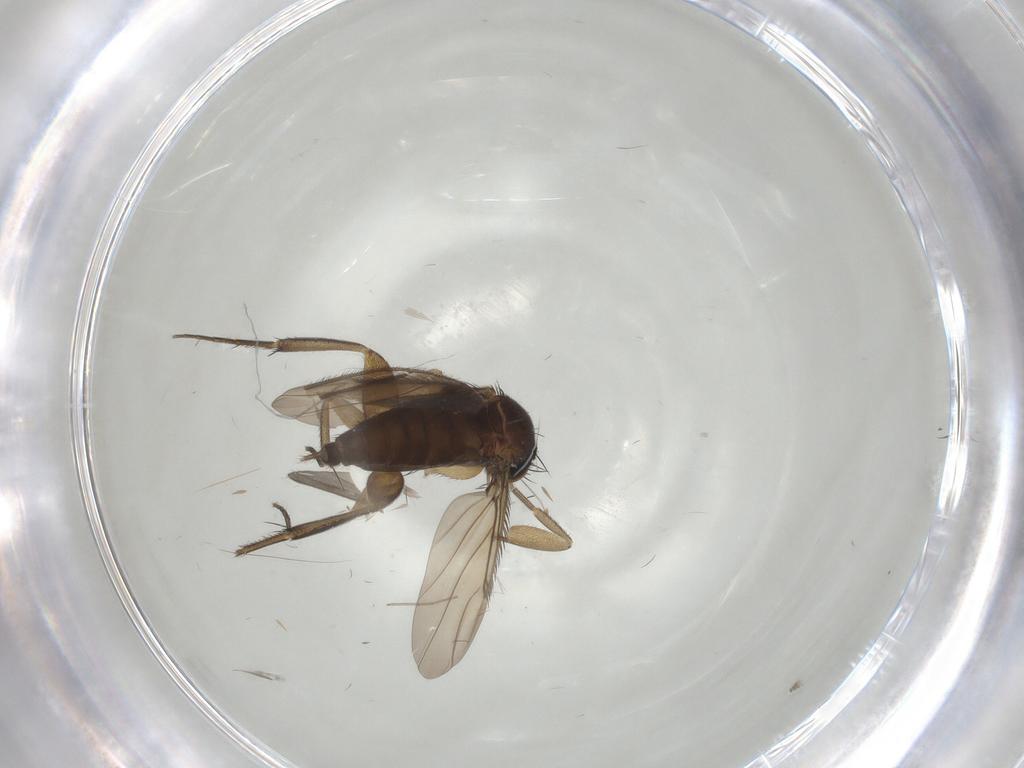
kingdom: Animalia
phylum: Arthropoda
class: Insecta
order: Diptera
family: Phoridae
